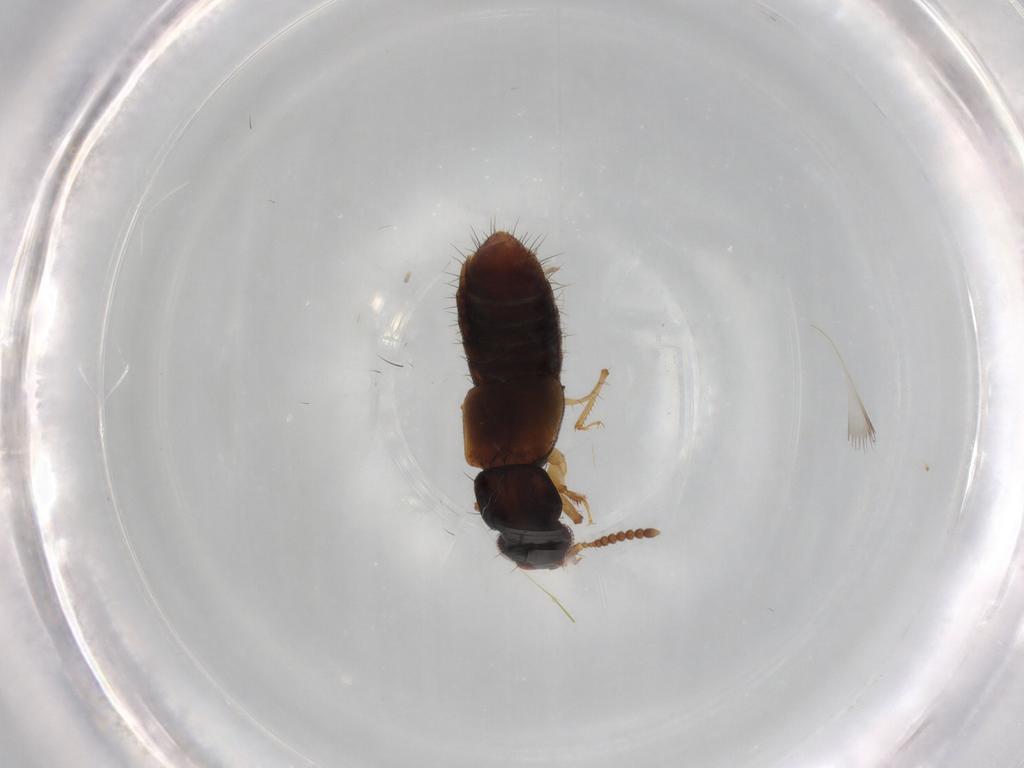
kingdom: Animalia
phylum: Arthropoda
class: Insecta
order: Coleoptera
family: Staphylinidae
